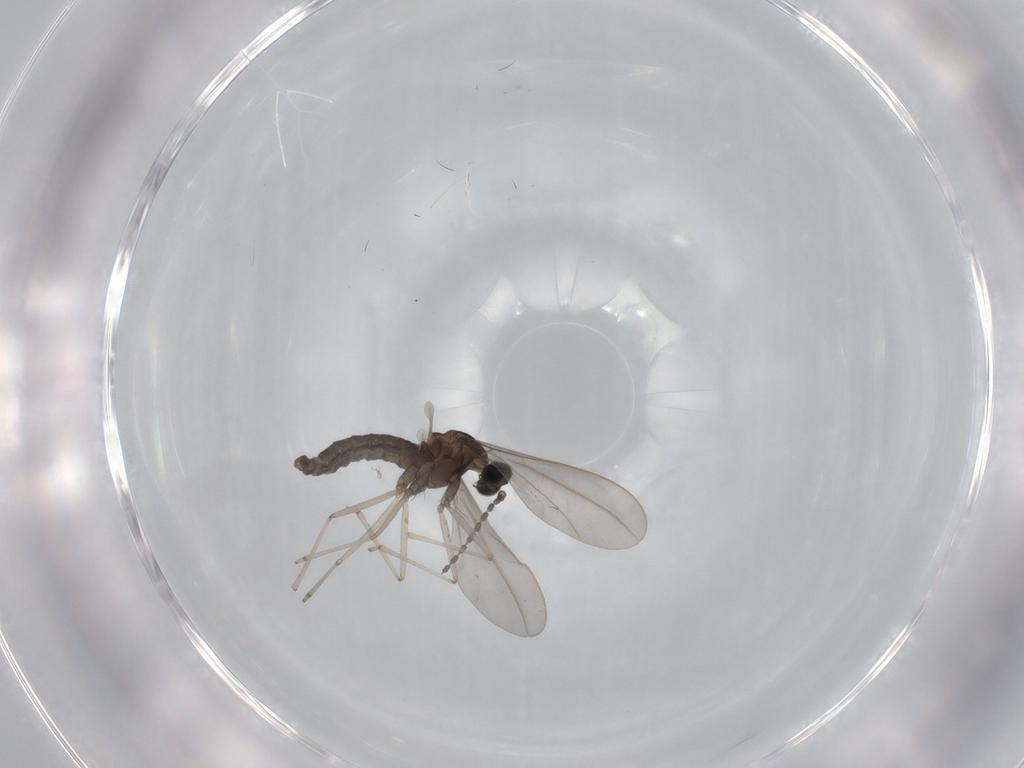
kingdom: Animalia
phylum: Arthropoda
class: Insecta
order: Diptera
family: Cecidomyiidae
